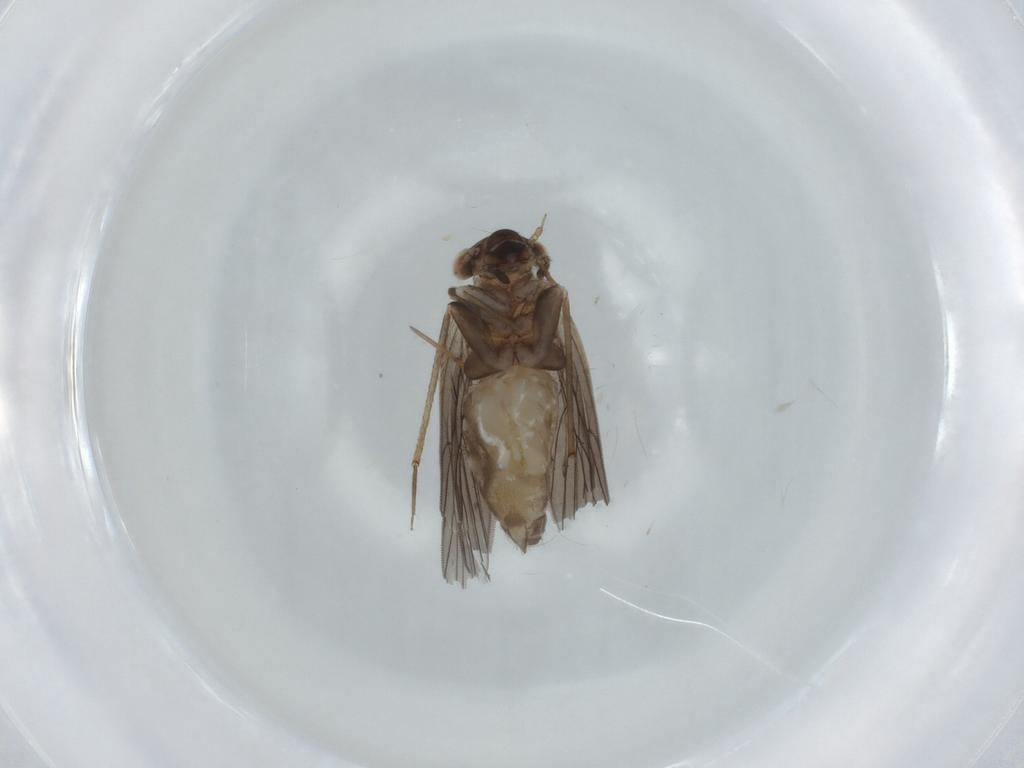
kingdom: Animalia
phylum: Arthropoda
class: Insecta
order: Psocodea
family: Lepidopsocidae
